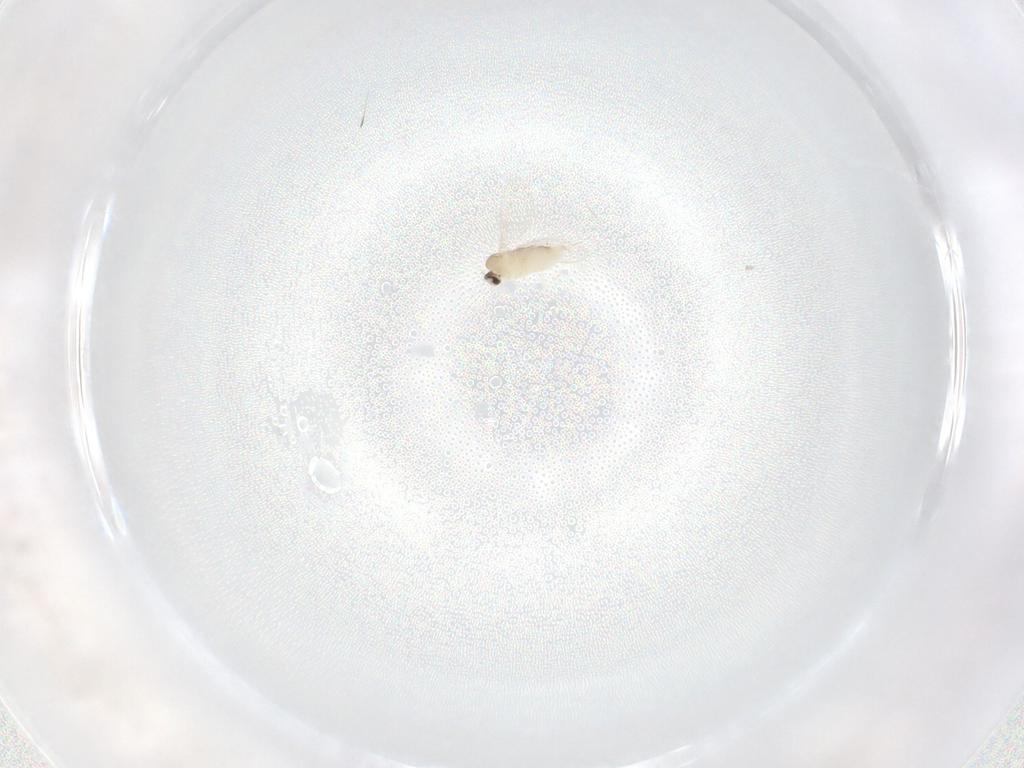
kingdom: Animalia
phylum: Arthropoda
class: Insecta
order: Diptera
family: Cecidomyiidae
